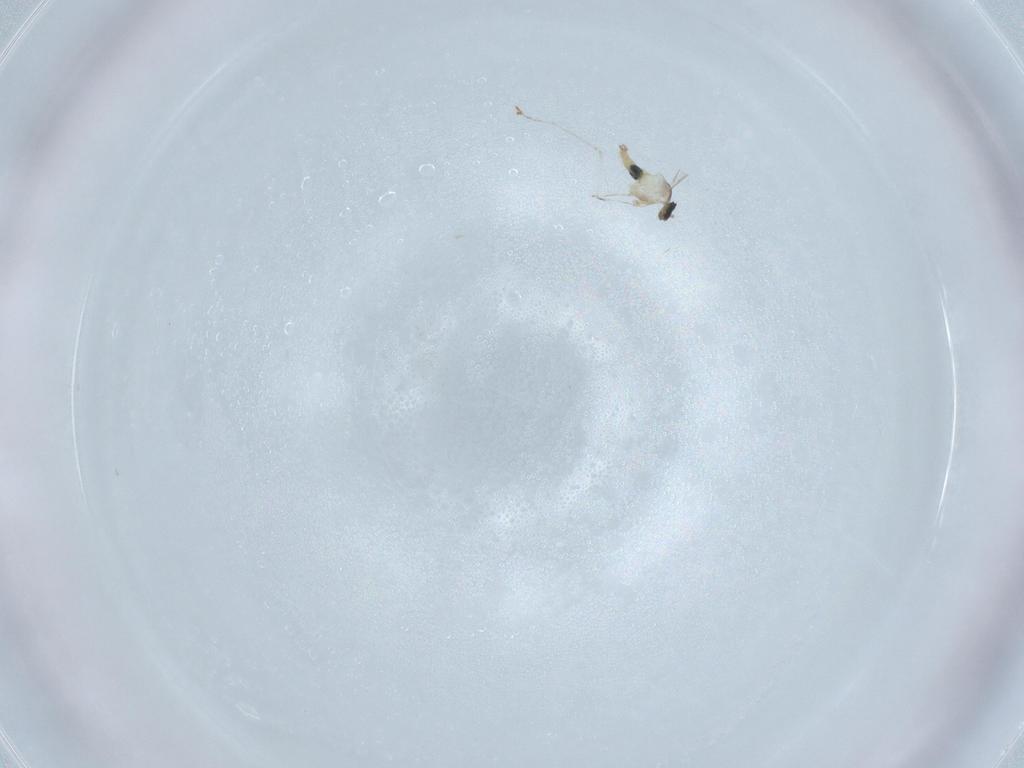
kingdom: Animalia
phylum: Arthropoda
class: Insecta
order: Diptera
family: Cecidomyiidae
